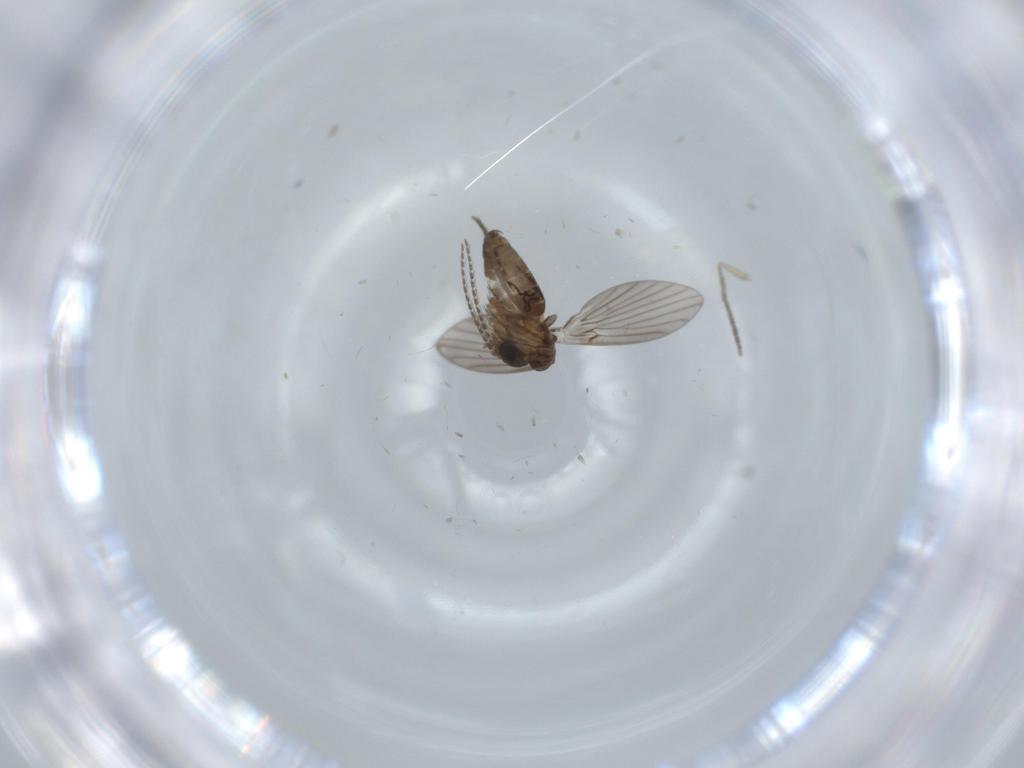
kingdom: Animalia
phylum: Arthropoda
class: Insecta
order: Diptera
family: Psychodidae
